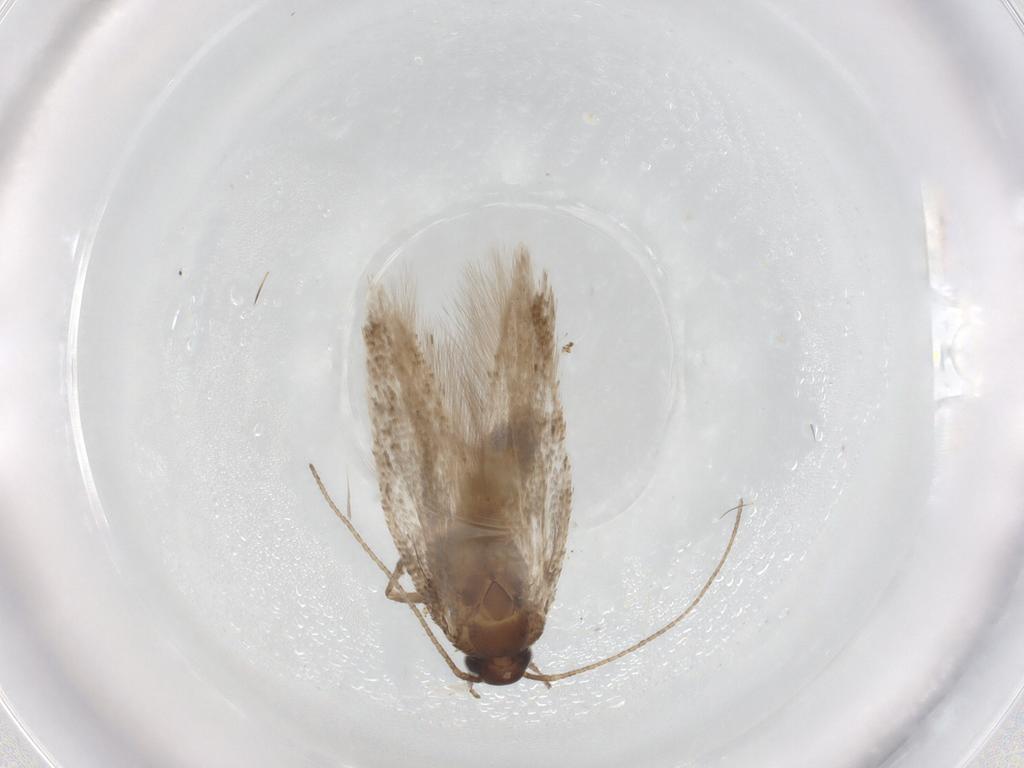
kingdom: Animalia
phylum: Arthropoda
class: Insecta
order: Lepidoptera
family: Gelechiidae
